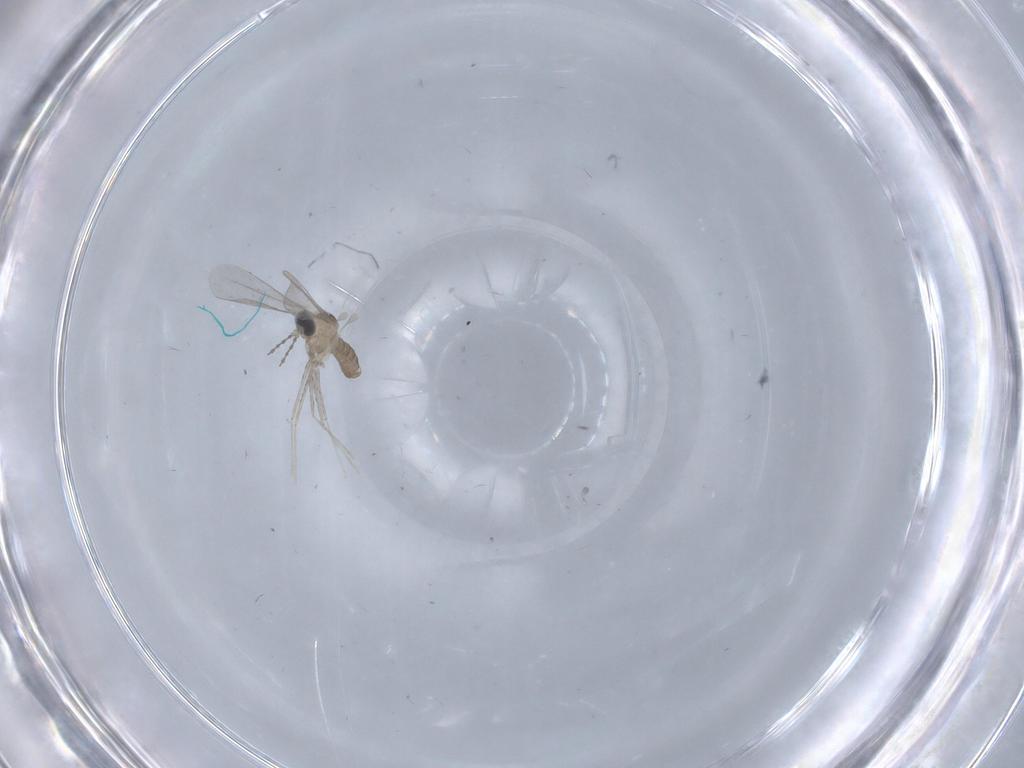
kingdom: Animalia
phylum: Arthropoda
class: Insecta
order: Diptera
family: Cecidomyiidae
